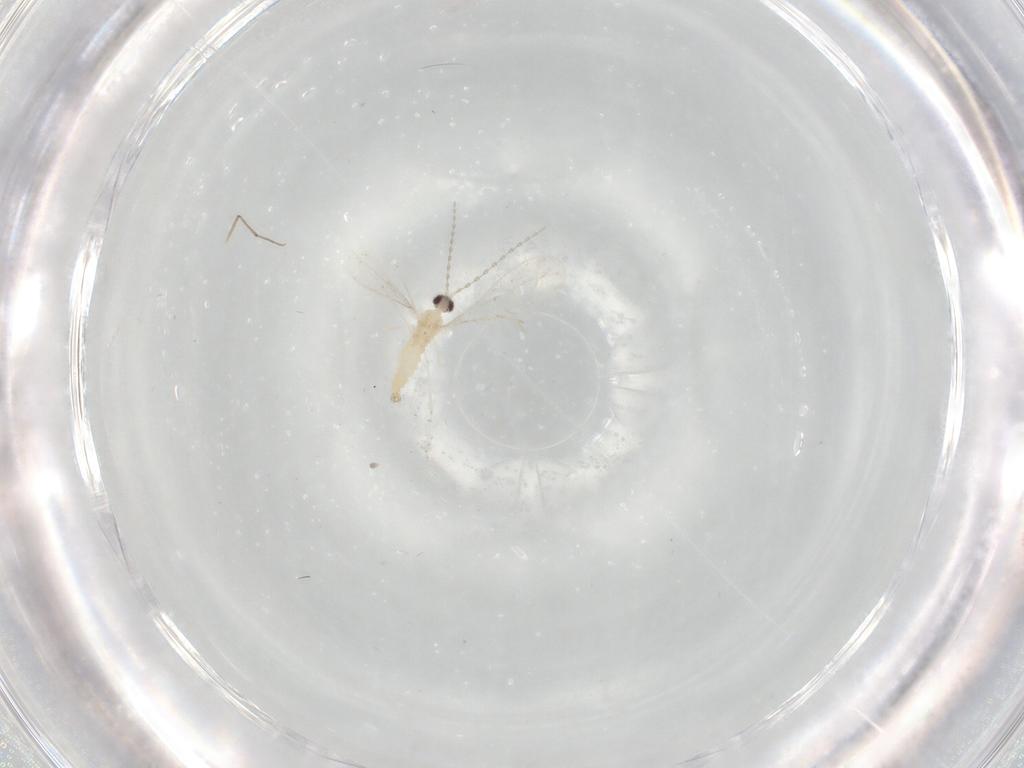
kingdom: Animalia
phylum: Arthropoda
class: Insecta
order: Diptera
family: Cecidomyiidae
